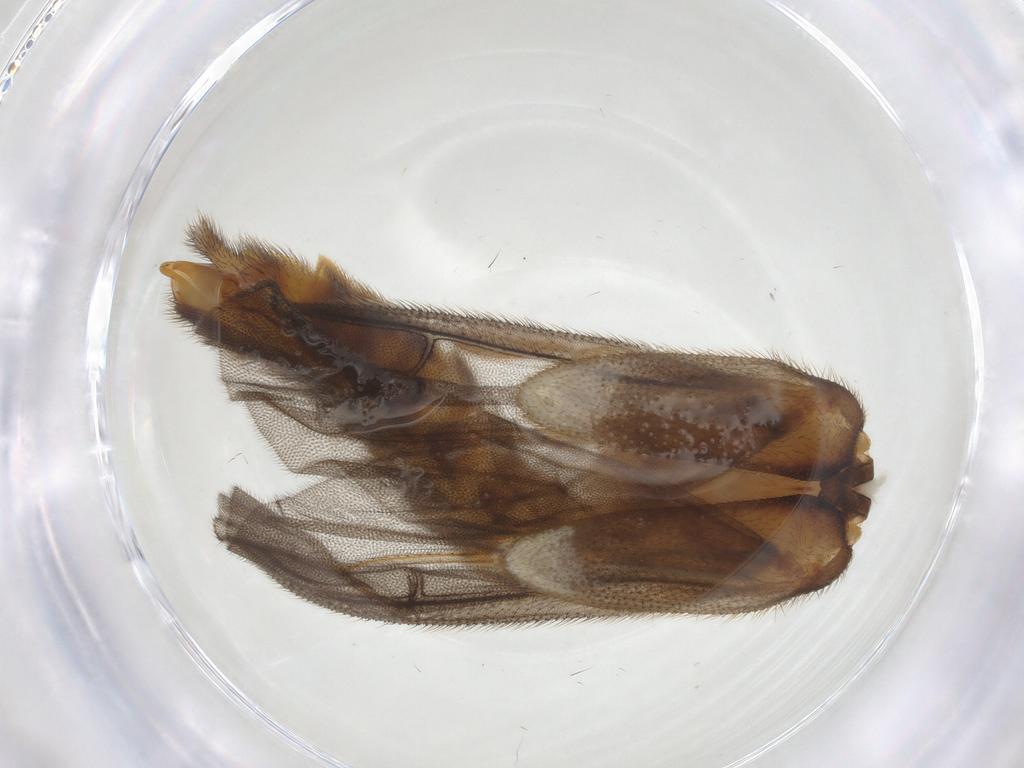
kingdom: Animalia
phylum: Arthropoda
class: Insecta
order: Coleoptera
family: Phengodidae
